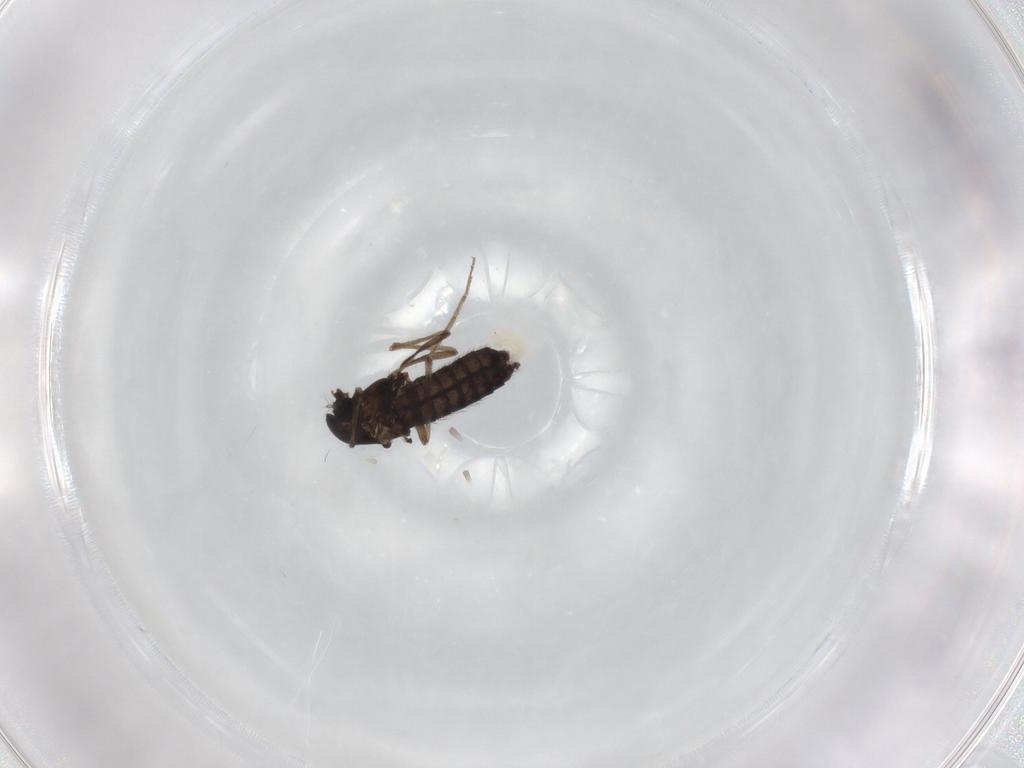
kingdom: Animalia
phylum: Arthropoda
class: Insecta
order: Diptera
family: Chironomidae
